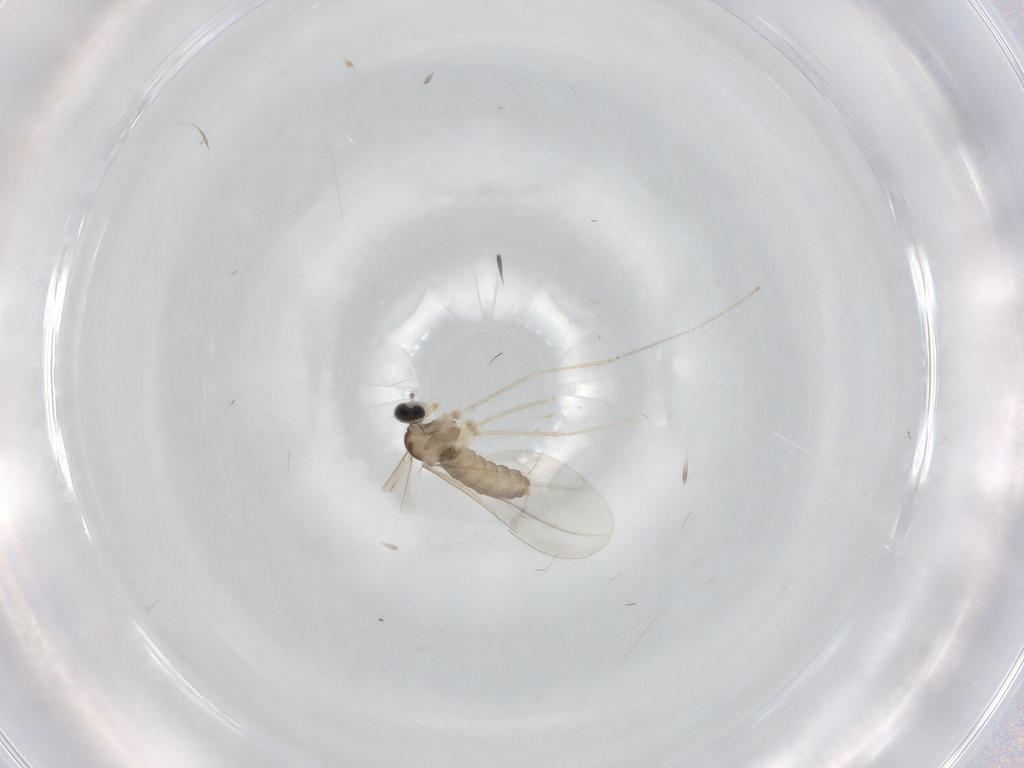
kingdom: Animalia
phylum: Arthropoda
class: Insecta
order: Diptera
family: Cecidomyiidae
